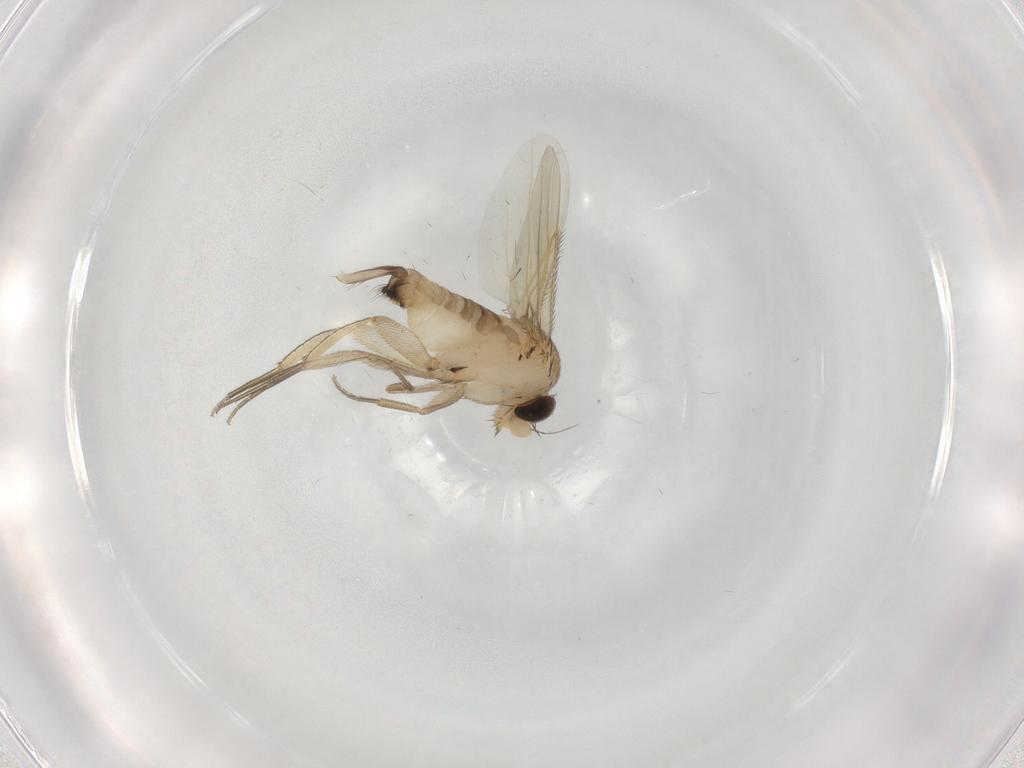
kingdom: Animalia
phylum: Arthropoda
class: Insecta
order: Diptera
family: Phoridae
